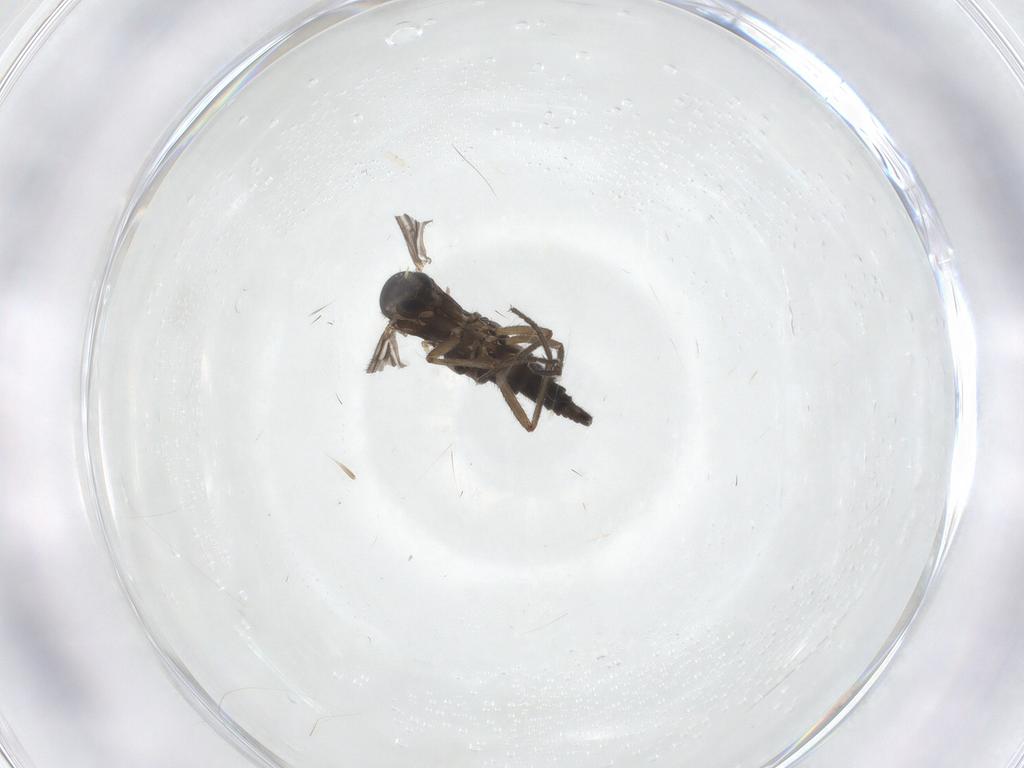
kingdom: Animalia
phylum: Arthropoda
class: Insecta
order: Diptera
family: Sciaridae
